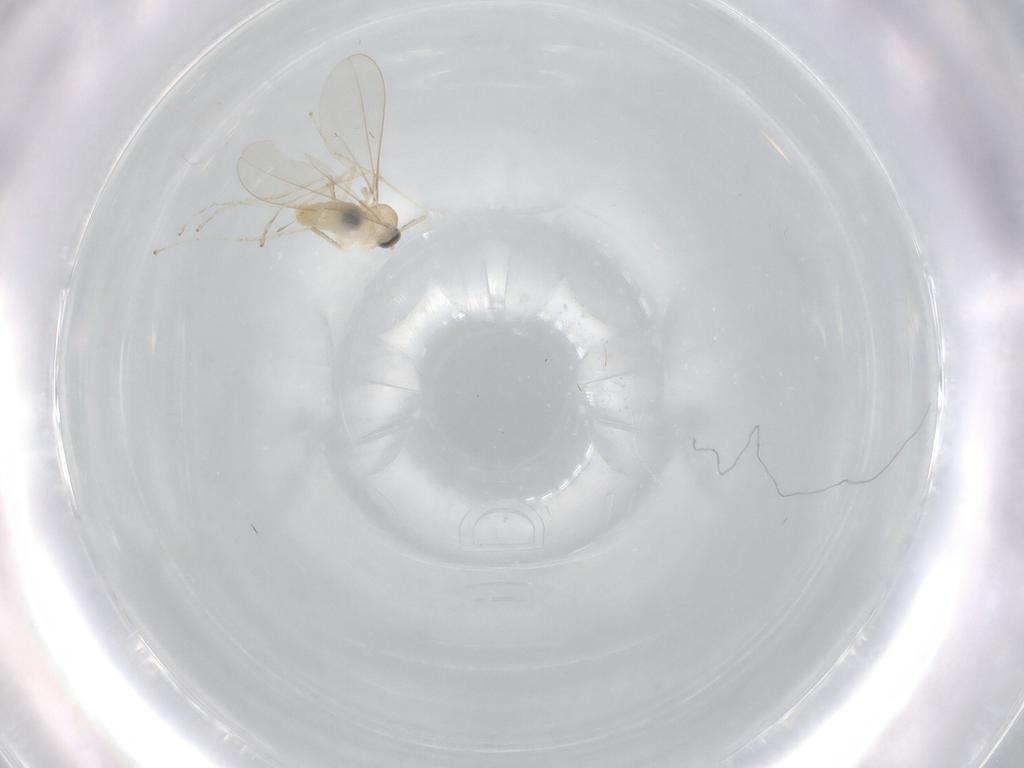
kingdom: Animalia
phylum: Arthropoda
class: Insecta
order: Diptera
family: Cecidomyiidae
